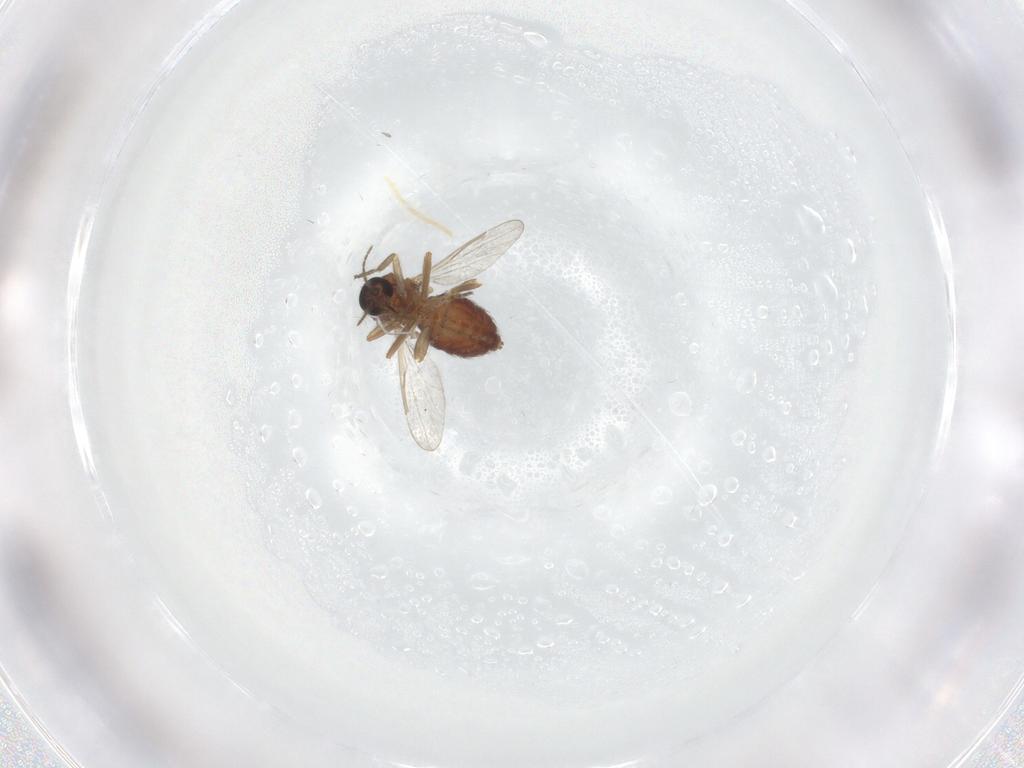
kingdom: Animalia
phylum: Arthropoda
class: Insecta
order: Diptera
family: Ceratopogonidae
